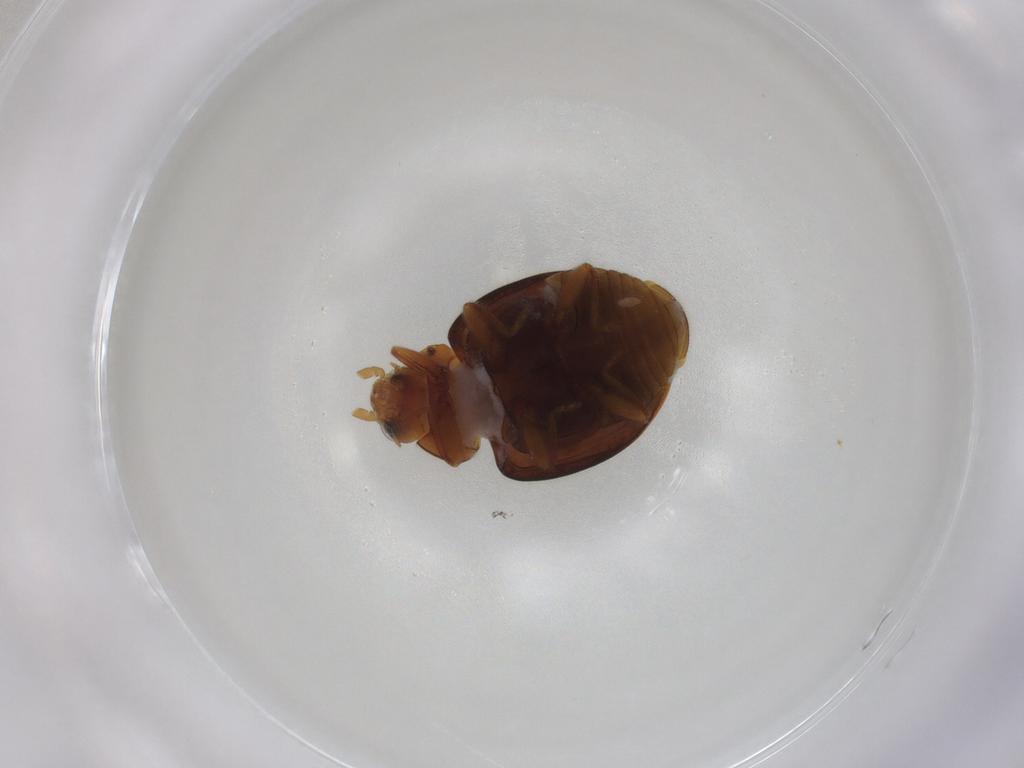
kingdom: Animalia
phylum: Arthropoda
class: Insecta
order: Coleoptera
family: Coccinellidae
